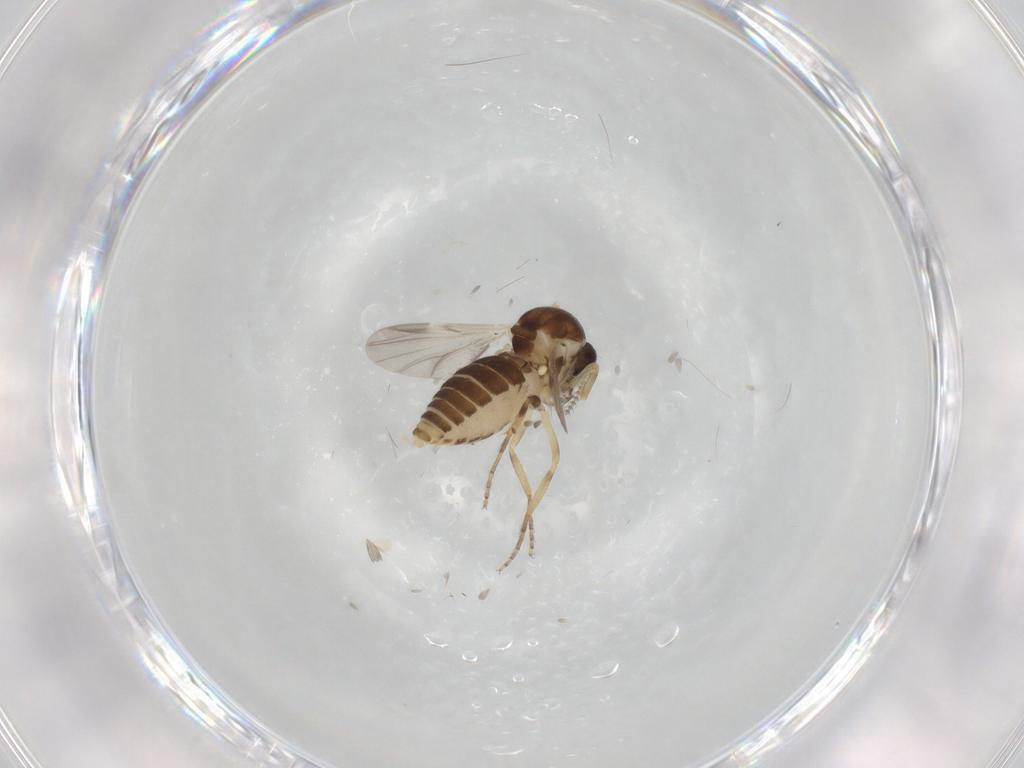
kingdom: Animalia
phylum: Arthropoda
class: Insecta
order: Diptera
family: Ceratopogonidae
